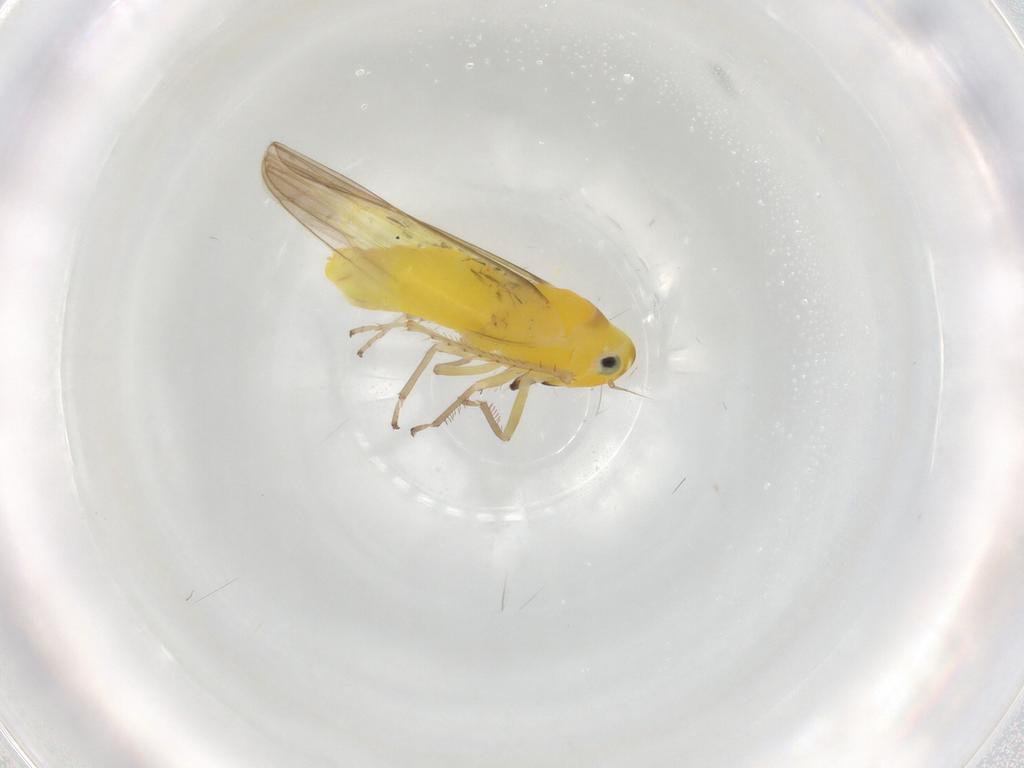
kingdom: Animalia
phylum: Arthropoda
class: Insecta
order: Hemiptera
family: Cicadellidae
